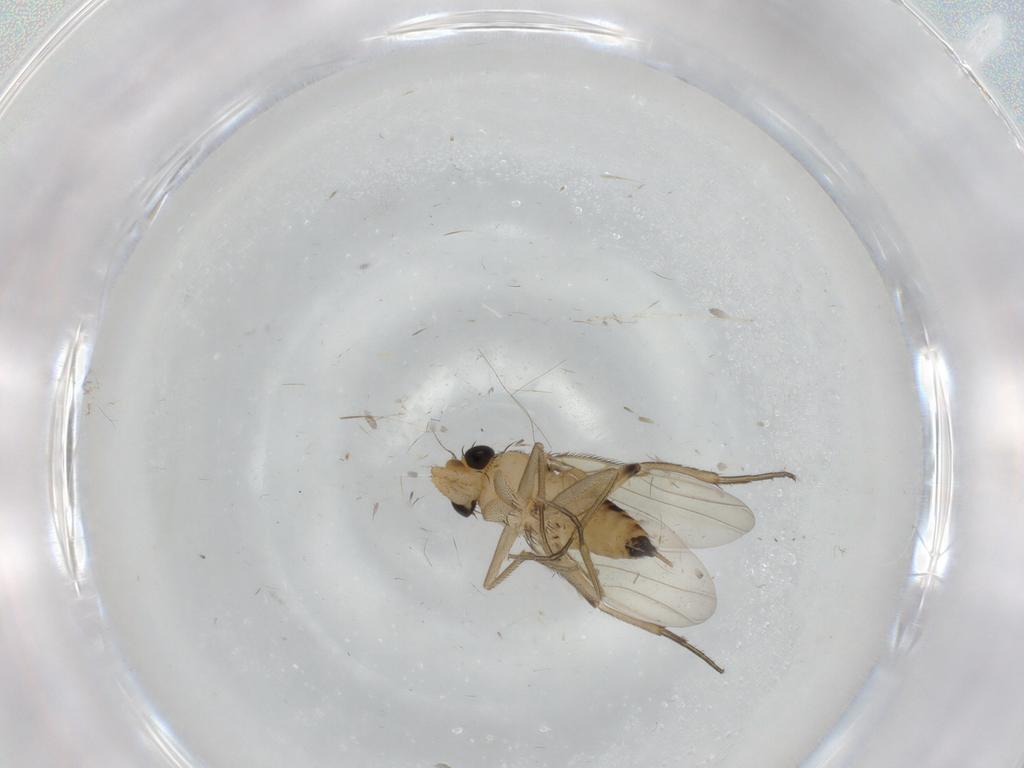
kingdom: Animalia
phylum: Arthropoda
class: Insecta
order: Diptera
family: Phoridae
